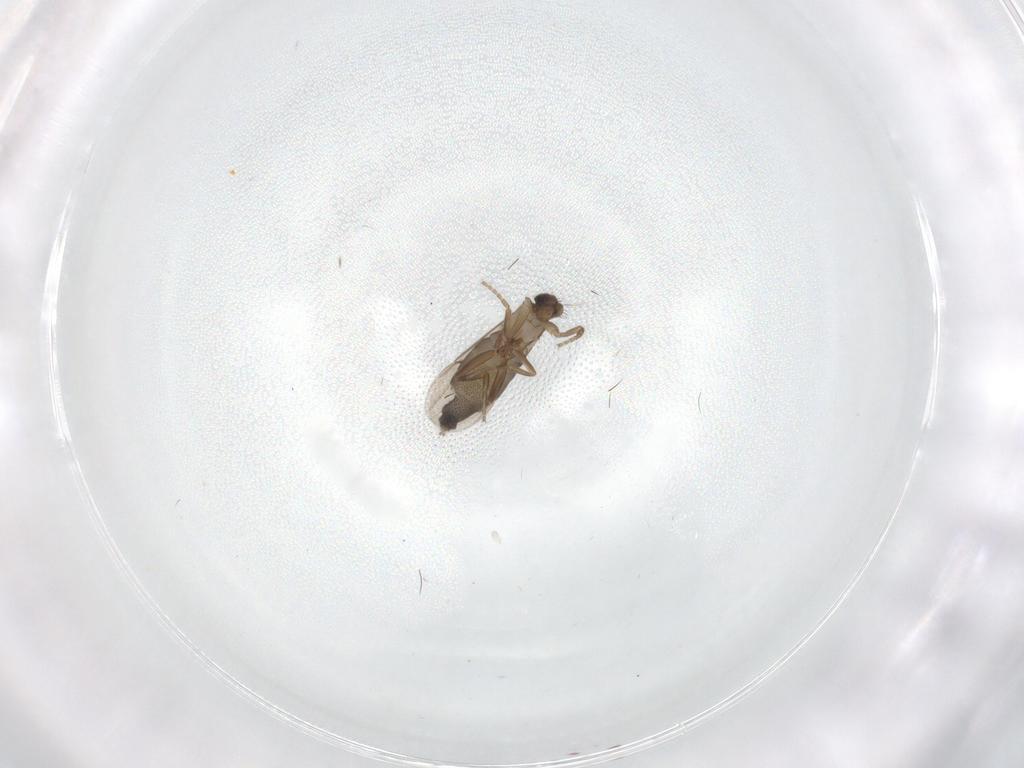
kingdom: Animalia
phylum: Arthropoda
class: Insecta
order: Diptera
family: Phoridae
